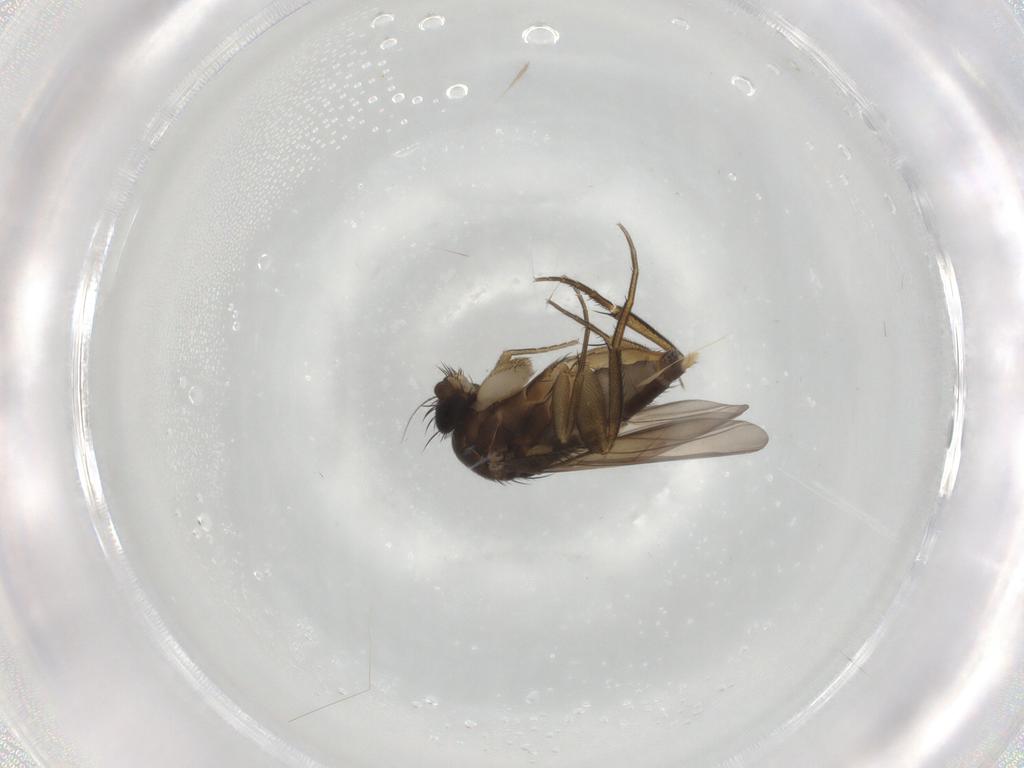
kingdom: Animalia
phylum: Arthropoda
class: Insecta
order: Diptera
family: Phoridae
